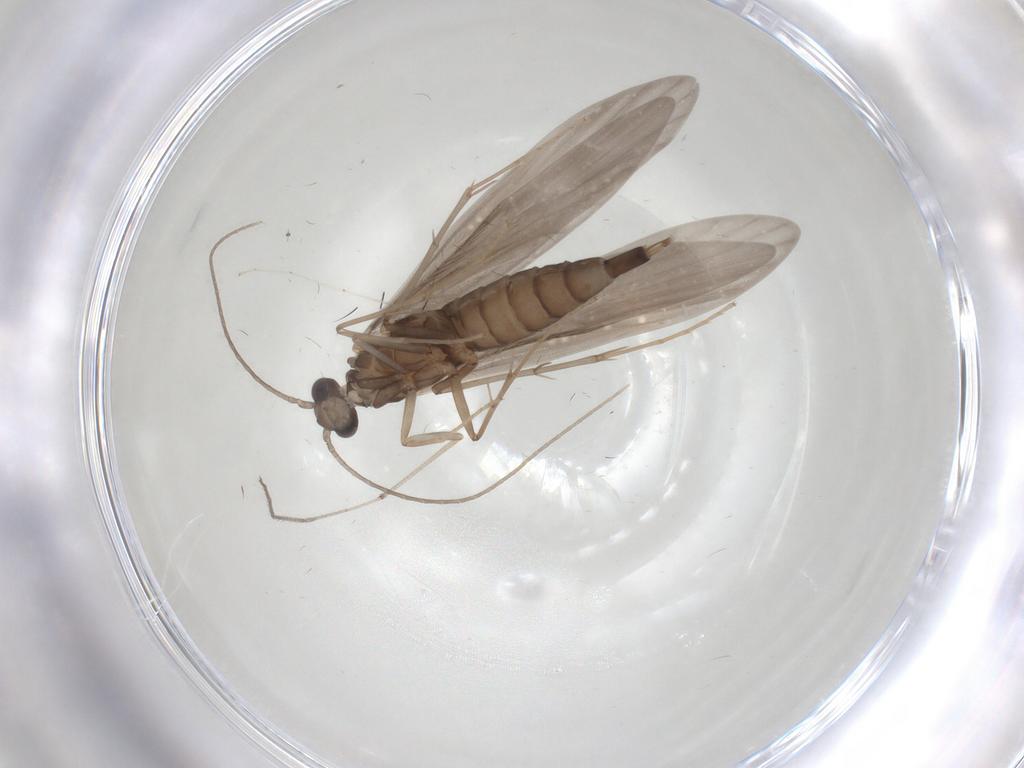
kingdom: Animalia
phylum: Arthropoda
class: Insecta
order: Trichoptera
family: Xiphocentronidae
